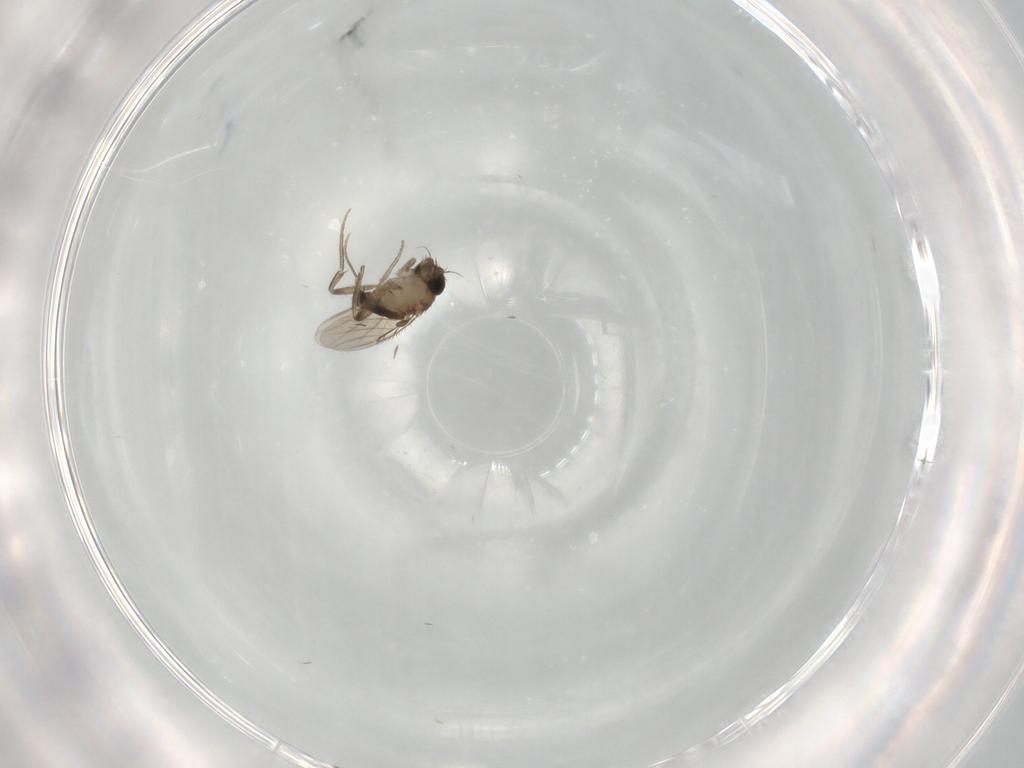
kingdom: Animalia
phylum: Arthropoda
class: Insecta
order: Diptera
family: Phoridae
